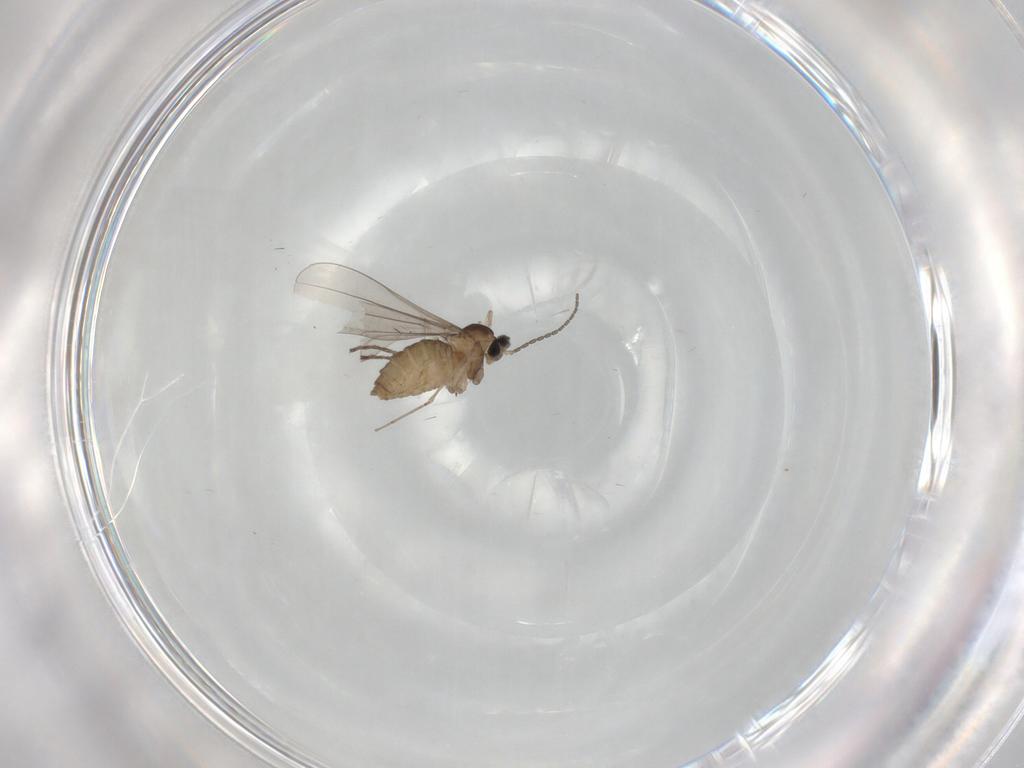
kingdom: Animalia
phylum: Arthropoda
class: Insecta
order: Diptera
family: Cecidomyiidae
